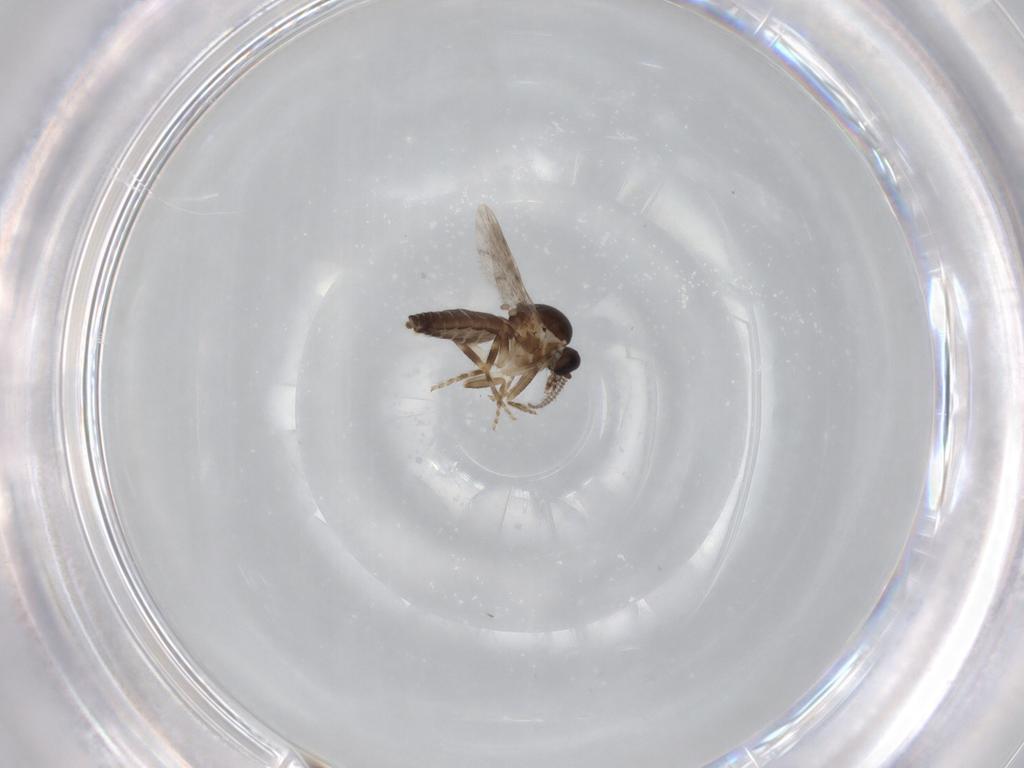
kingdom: Animalia
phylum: Arthropoda
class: Insecta
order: Diptera
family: Ceratopogonidae
